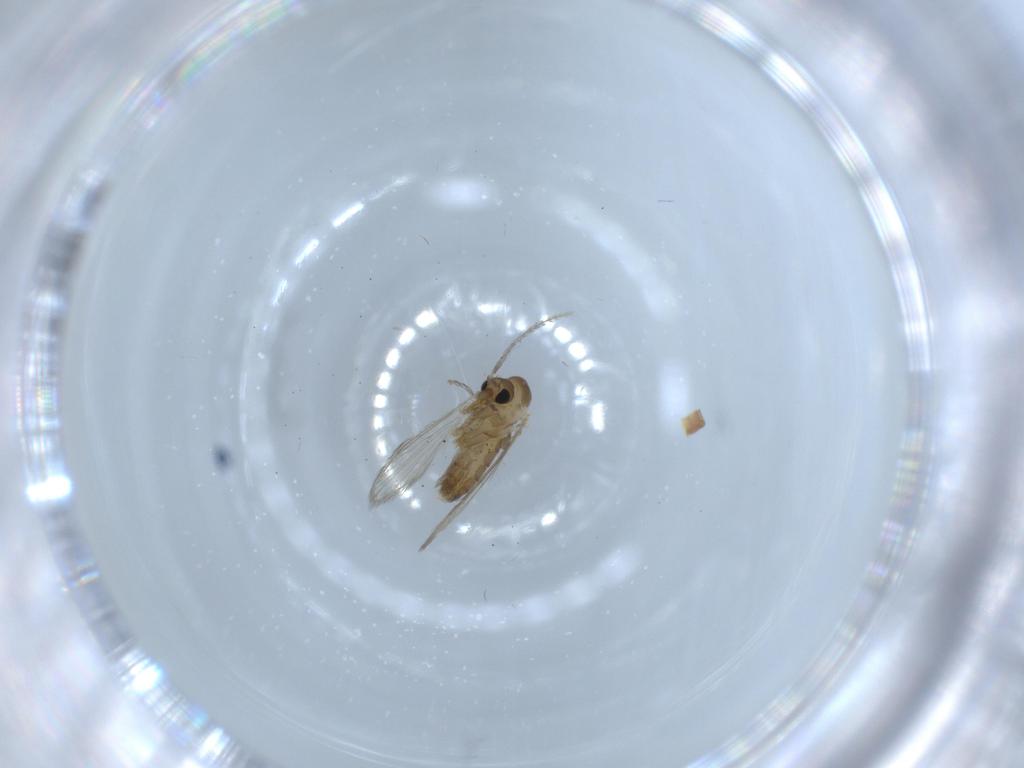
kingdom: Animalia
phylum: Arthropoda
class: Insecta
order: Diptera
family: Psychodidae
